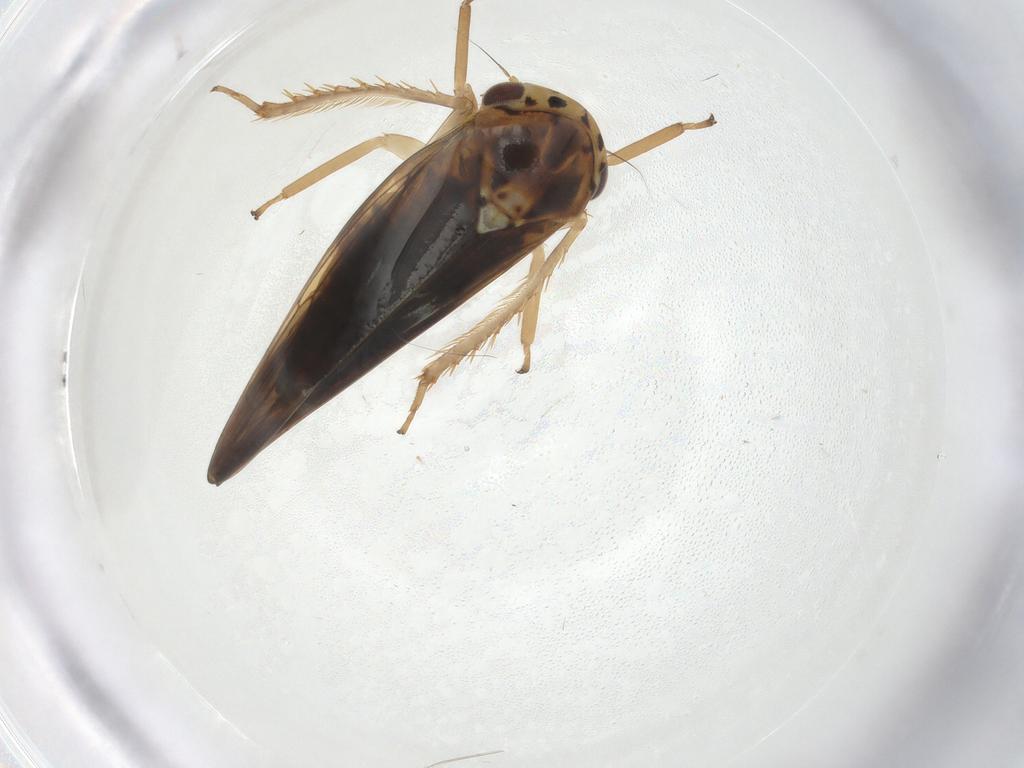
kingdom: Animalia
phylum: Arthropoda
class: Insecta
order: Hemiptera
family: Cicadellidae
